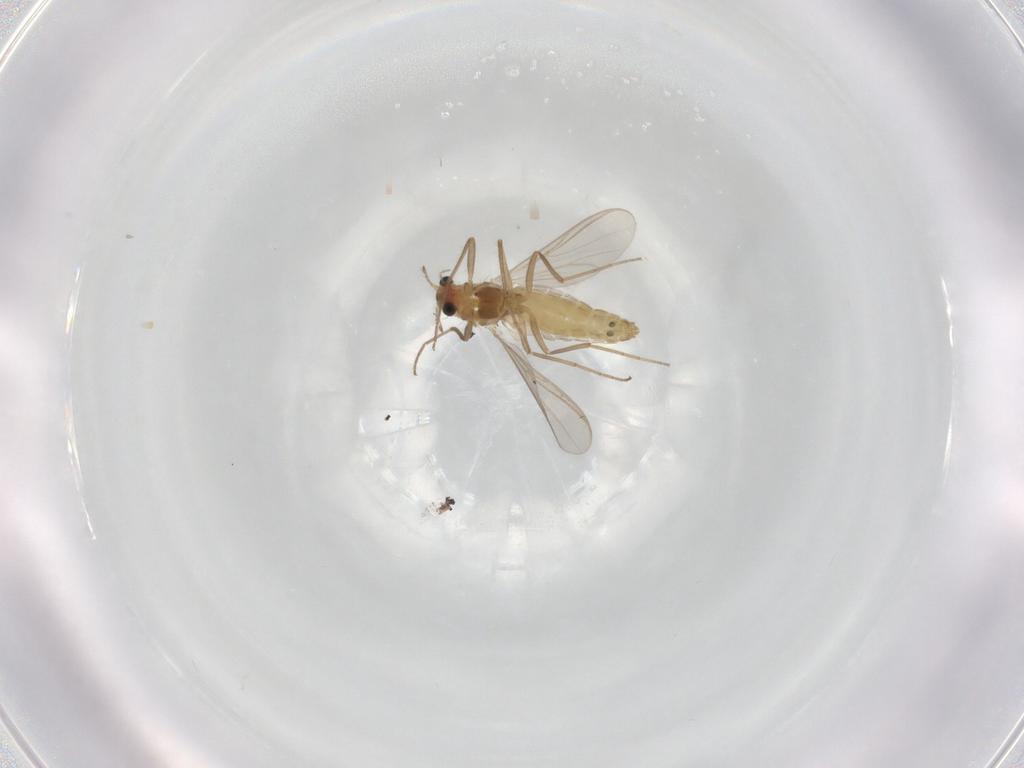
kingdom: Animalia
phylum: Arthropoda
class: Insecta
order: Diptera
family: Chironomidae
